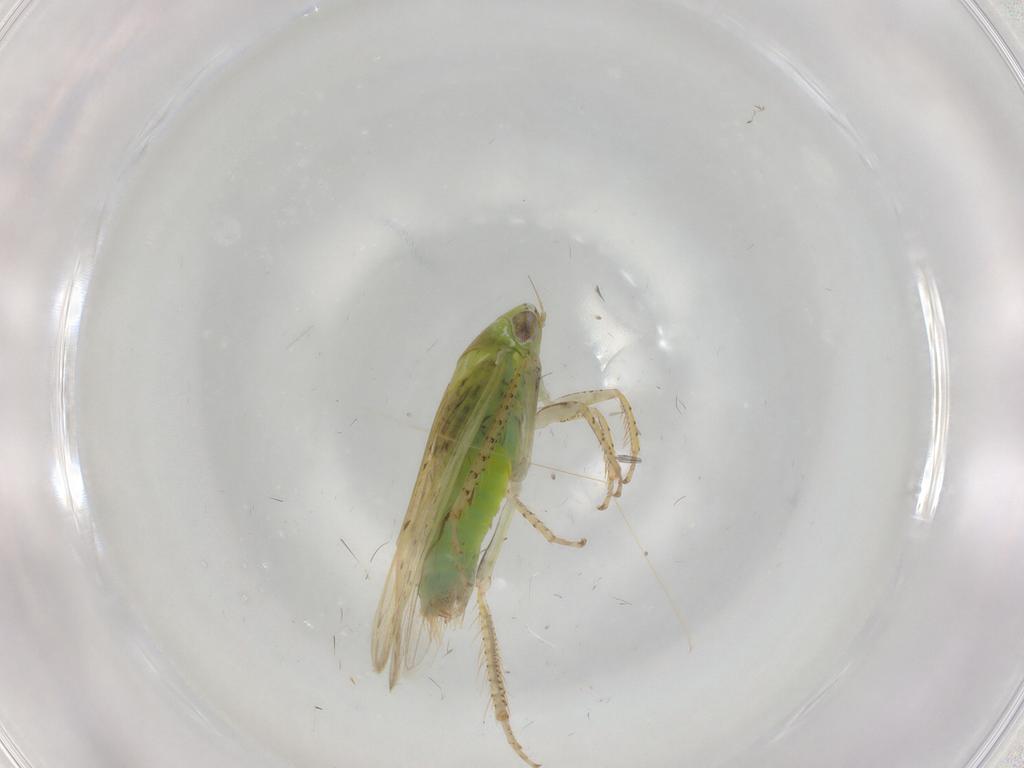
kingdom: Animalia
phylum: Arthropoda
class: Insecta
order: Hemiptera
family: Cicadellidae
